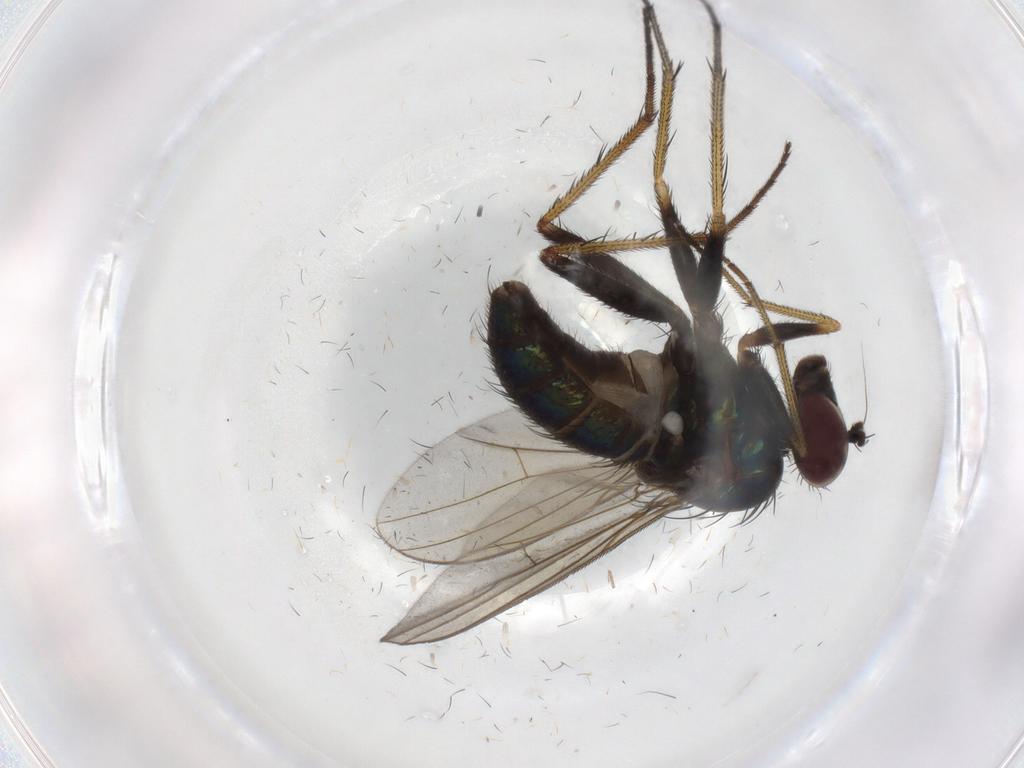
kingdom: Animalia
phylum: Arthropoda
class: Insecta
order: Diptera
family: Dolichopodidae
